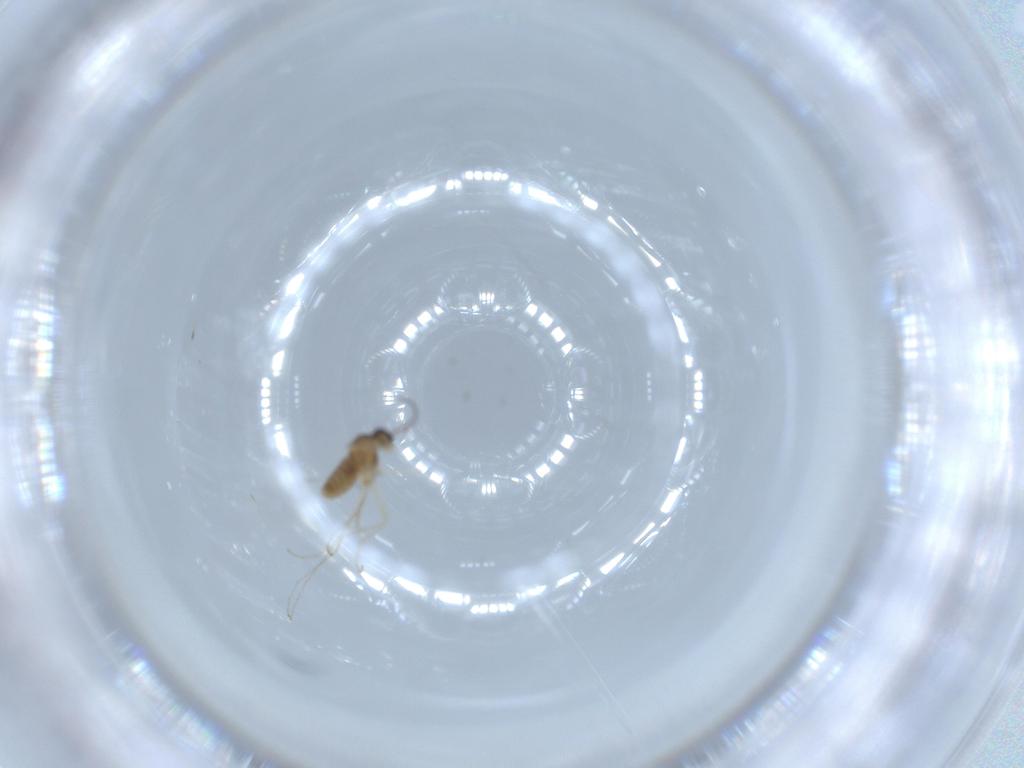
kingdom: Animalia
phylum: Arthropoda
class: Insecta
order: Diptera
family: Cecidomyiidae
